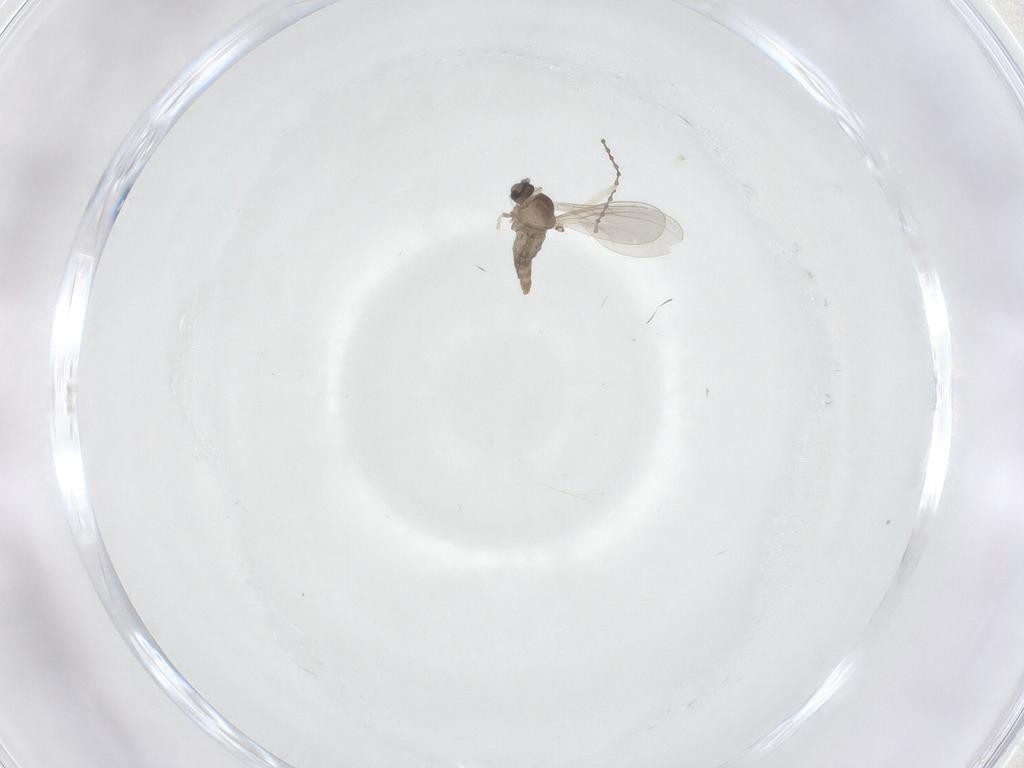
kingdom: Animalia
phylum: Arthropoda
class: Insecta
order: Diptera
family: Cecidomyiidae
